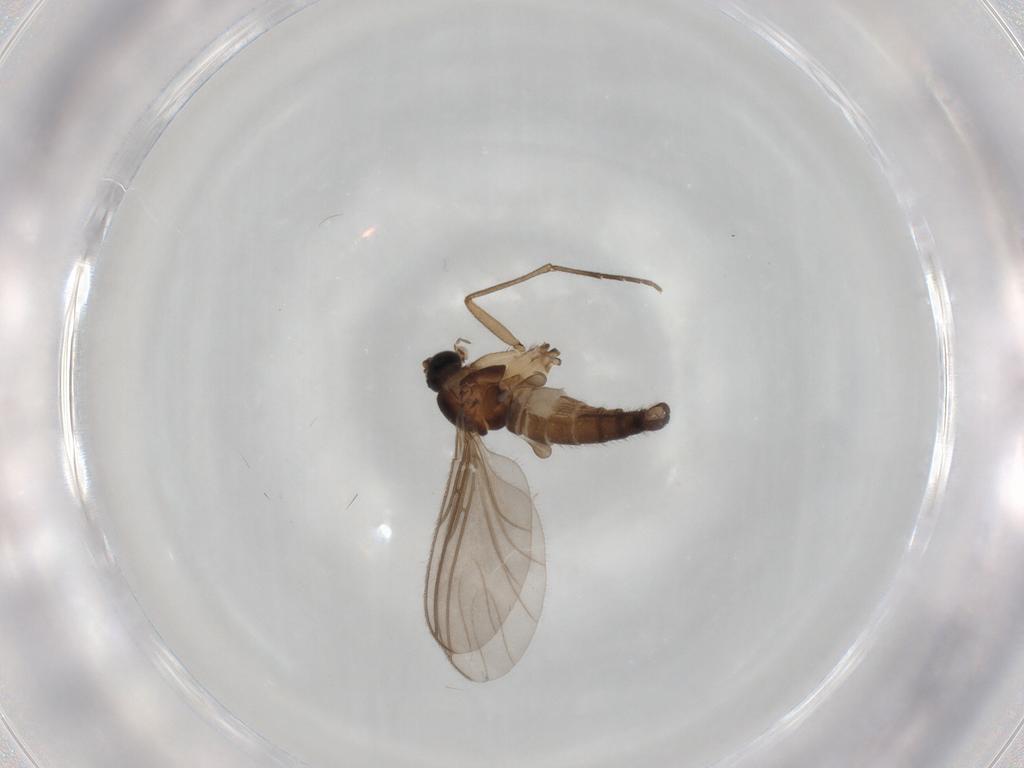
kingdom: Animalia
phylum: Arthropoda
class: Insecta
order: Diptera
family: Sciaridae
